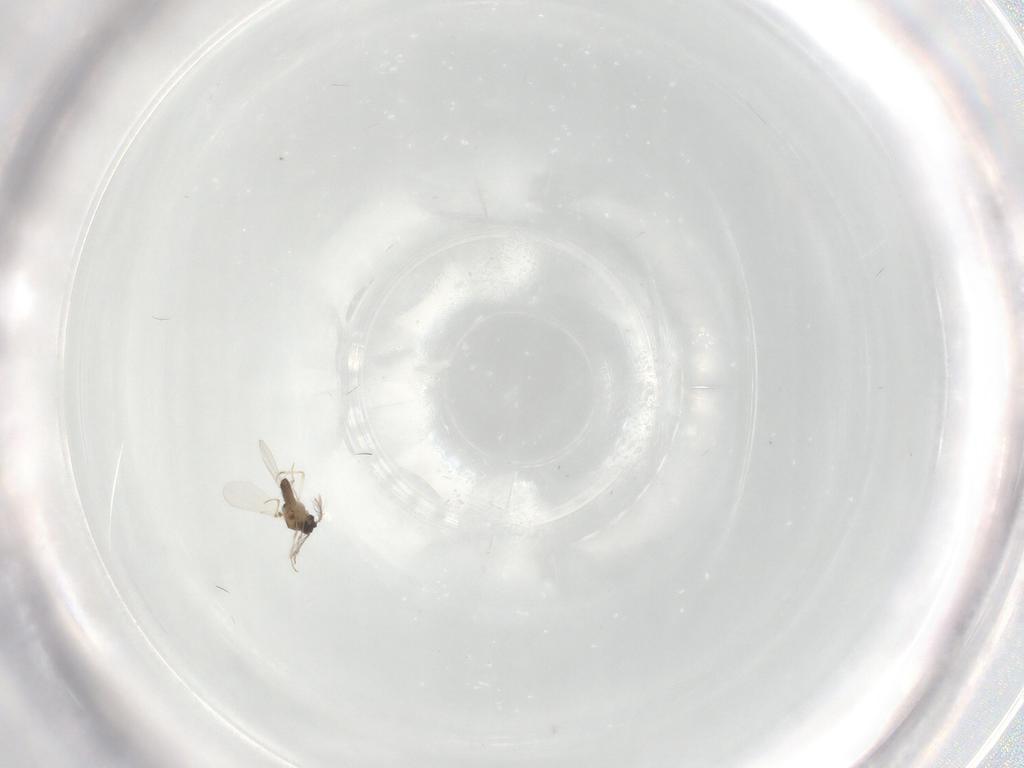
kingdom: Animalia
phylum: Arthropoda
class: Insecta
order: Diptera
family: Ceratopogonidae
